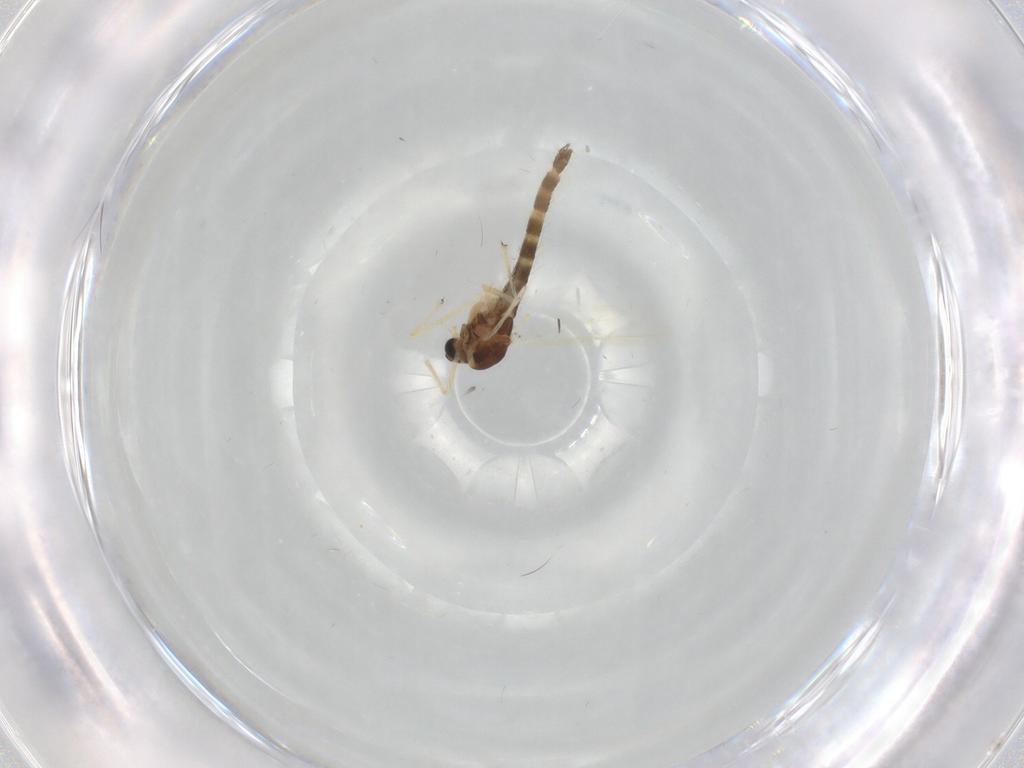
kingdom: Animalia
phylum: Arthropoda
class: Insecta
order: Diptera
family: Chironomidae
